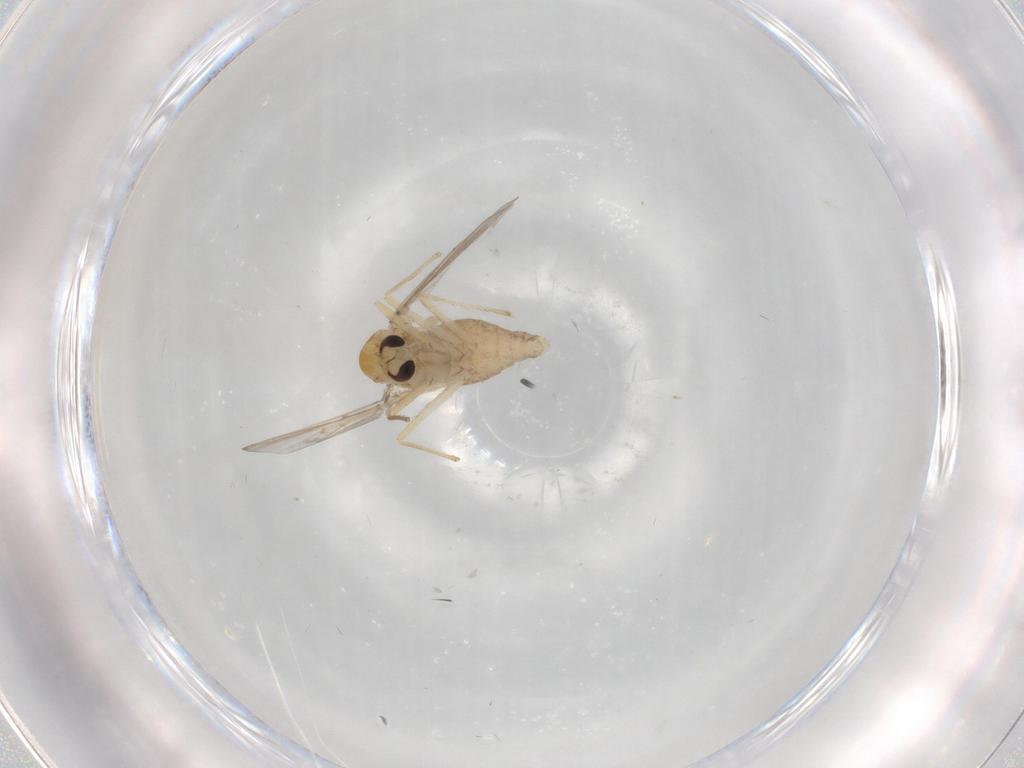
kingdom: Animalia
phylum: Arthropoda
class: Insecta
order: Diptera
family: Chironomidae
